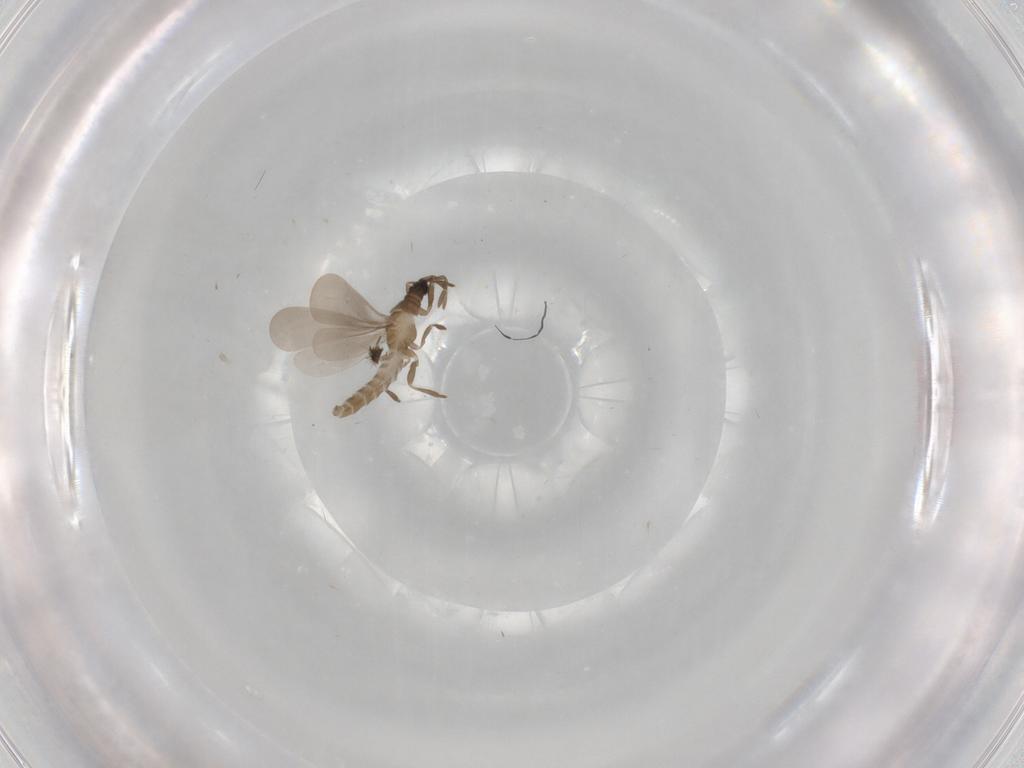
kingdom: Animalia
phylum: Arthropoda
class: Insecta
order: Hemiptera
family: Enicocephalidae
